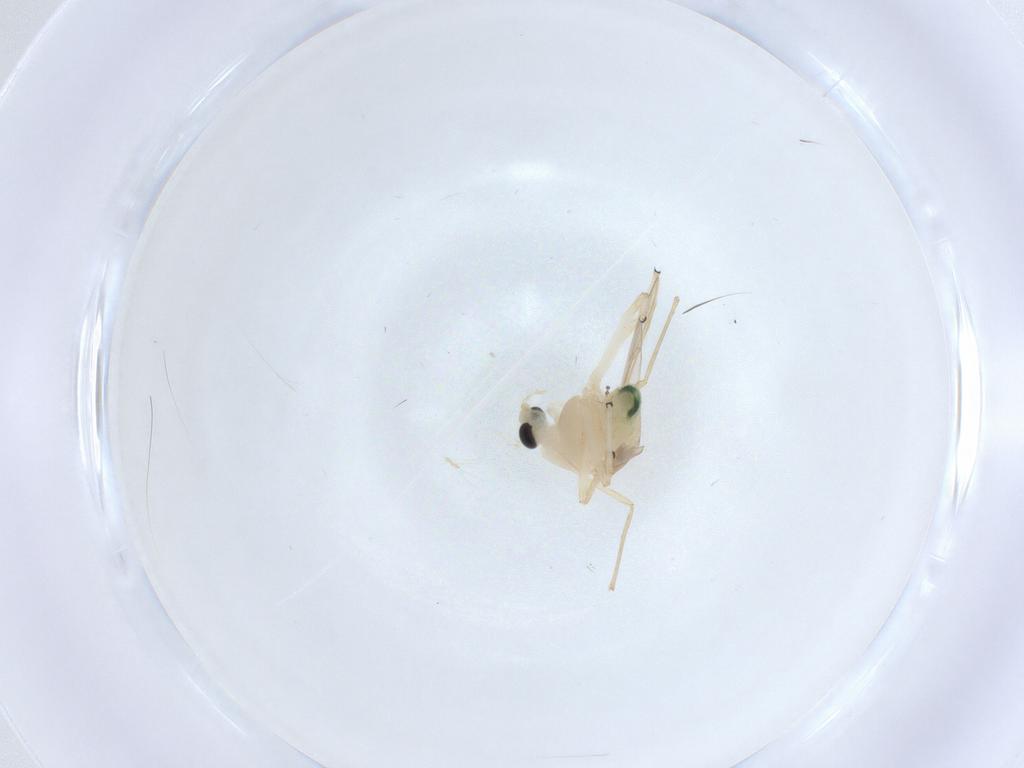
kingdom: Animalia
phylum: Arthropoda
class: Insecta
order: Diptera
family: Chironomidae
